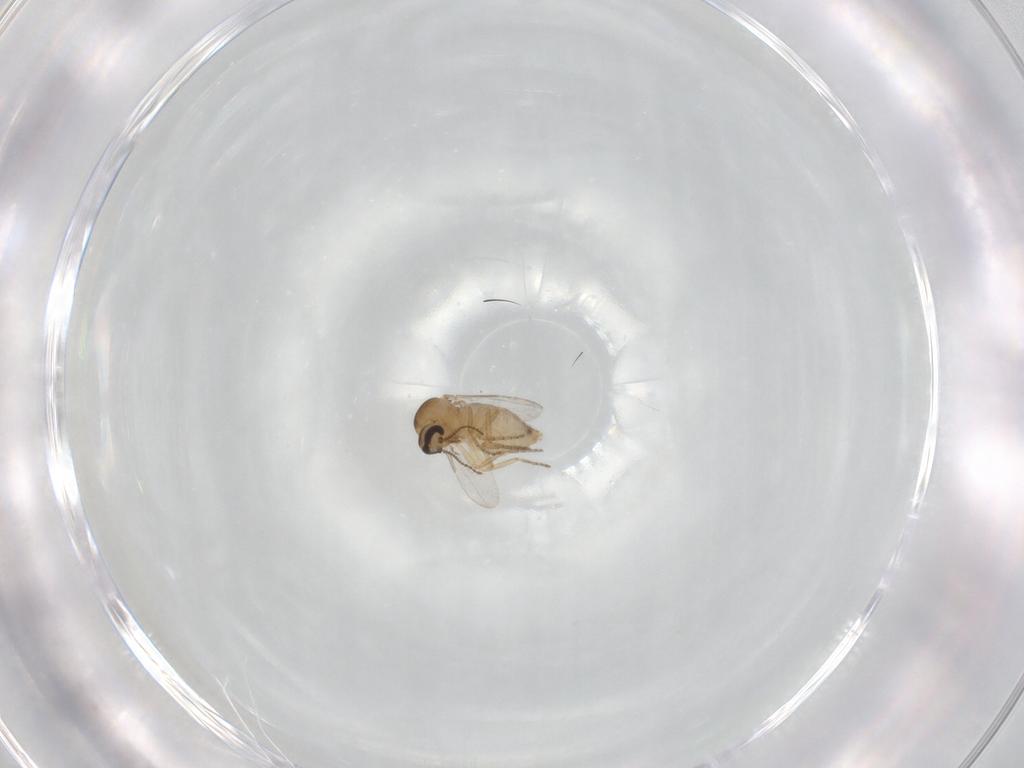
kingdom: Animalia
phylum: Arthropoda
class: Insecta
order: Diptera
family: Ceratopogonidae
